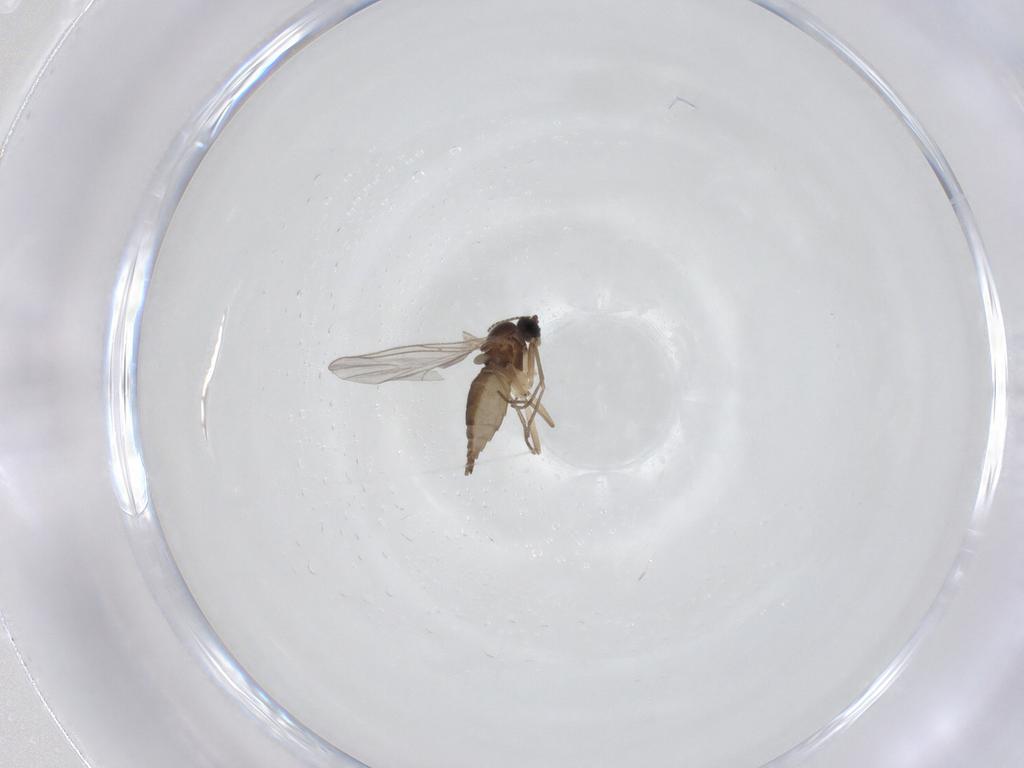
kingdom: Animalia
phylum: Arthropoda
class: Insecta
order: Diptera
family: Sciaridae
